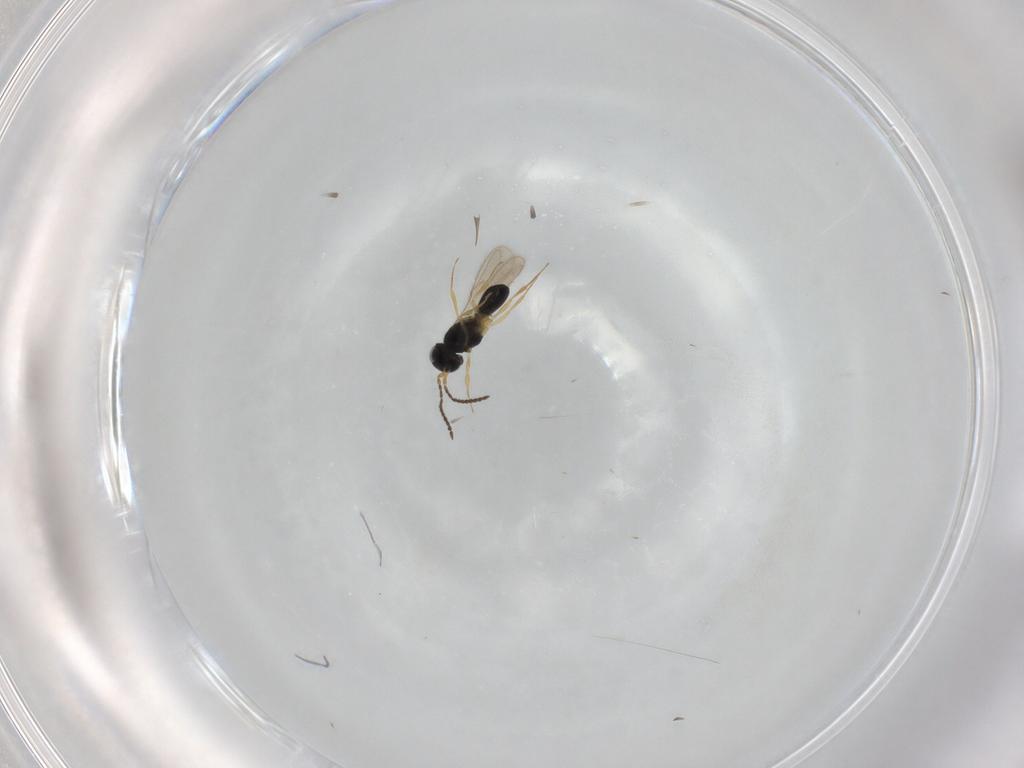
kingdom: Animalia
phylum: Arthropoda
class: Insecta
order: Hymenoptera
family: Scelionidae
